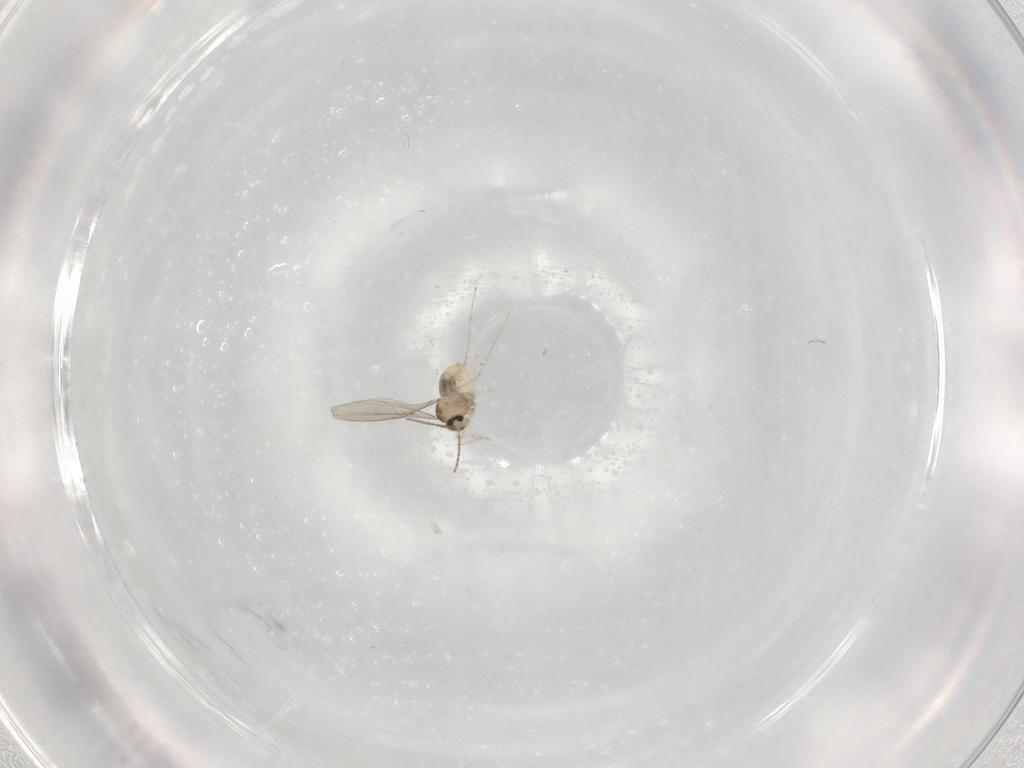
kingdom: Animalia
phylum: Arthropoda
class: Insecta
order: Diptera
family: Cecidomyiidae
